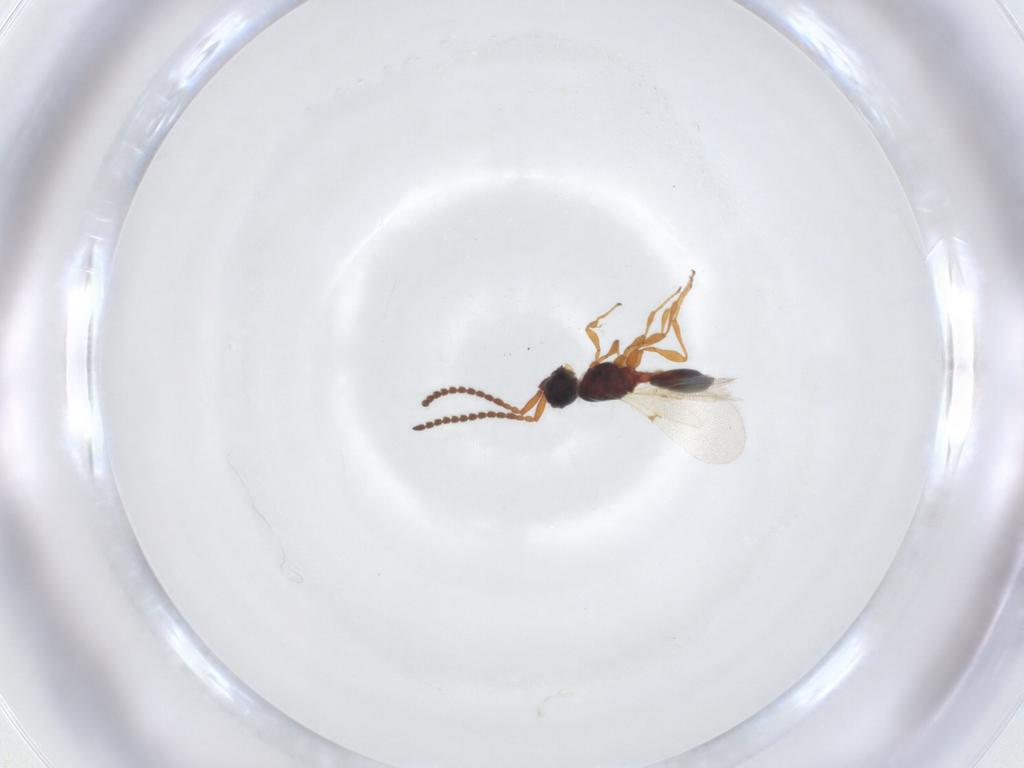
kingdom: Animalia
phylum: Arthropoda
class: Insecta
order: Hymenoptera
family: Diapriidae
